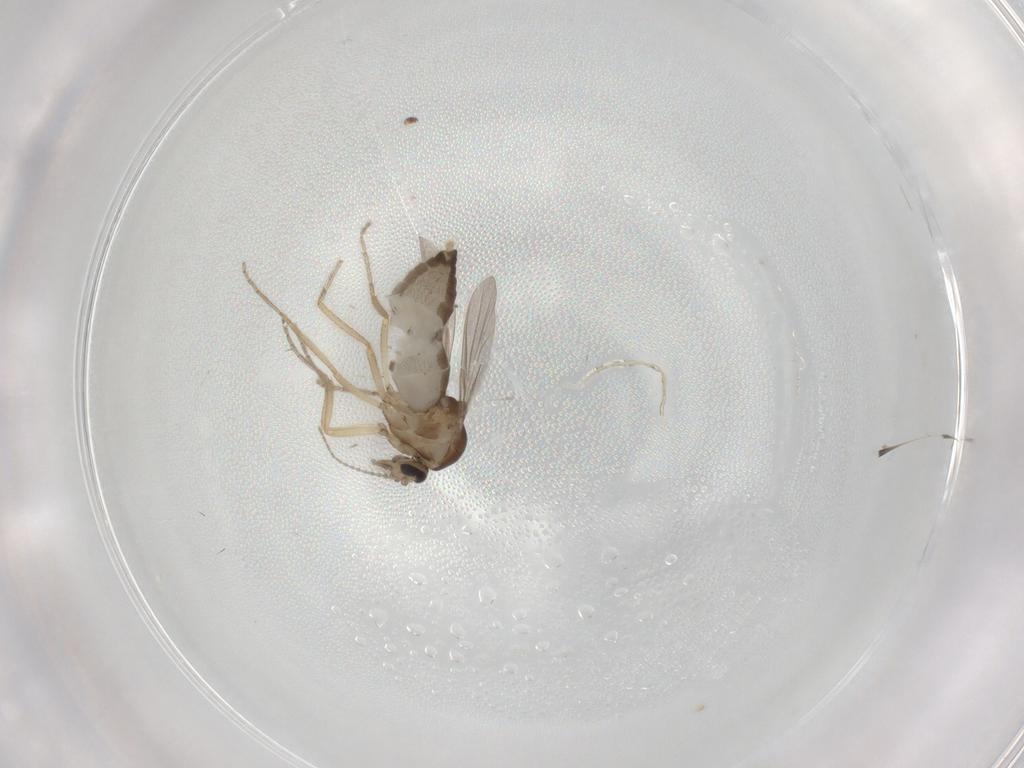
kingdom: Animalia
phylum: Arthropoda
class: Insecta
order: Diptera
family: Ceratopogonidae
